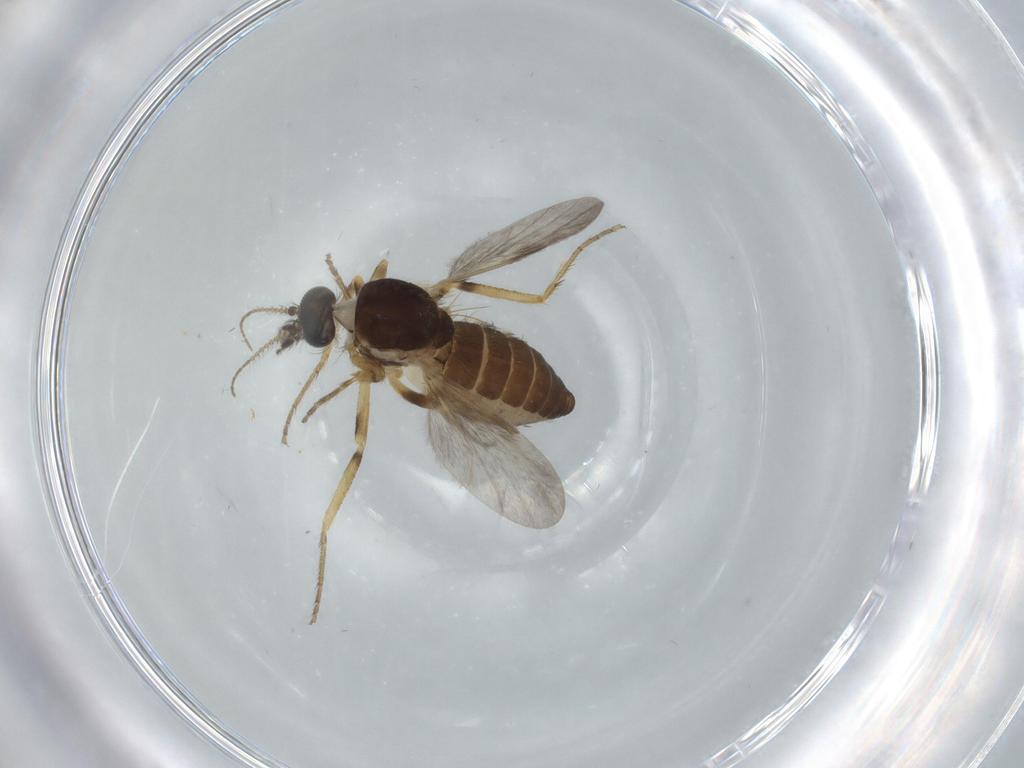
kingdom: Animalia
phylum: Arthropoda
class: Insecta
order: Diptera
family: Ceratopogonidae
